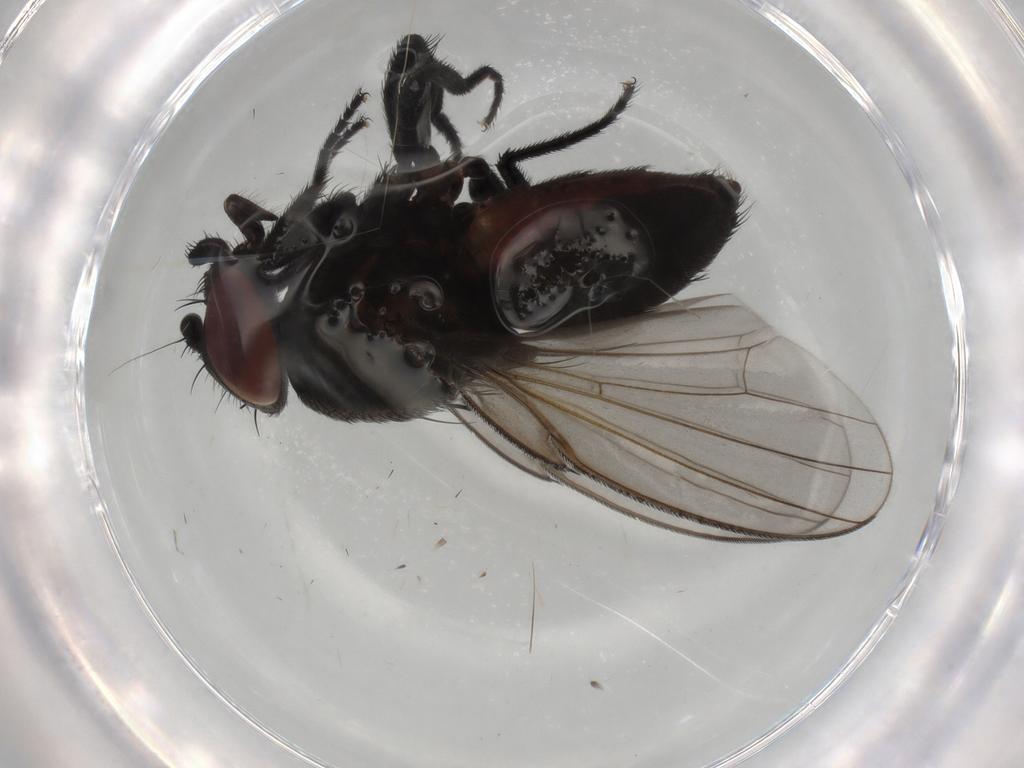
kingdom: Animalia
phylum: Arthropoda
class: Insecta
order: Diptera
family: Milichiidae
